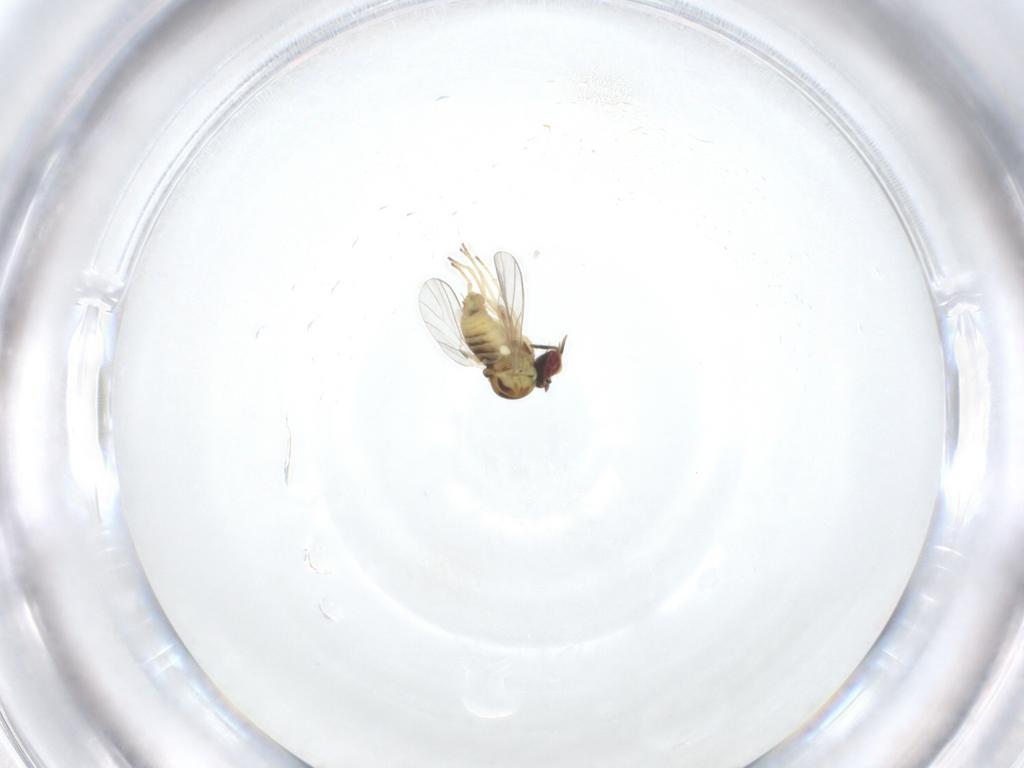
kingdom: Animalia
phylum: Arthropoda
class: Insecta
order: Diptera
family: Bombyliidae
